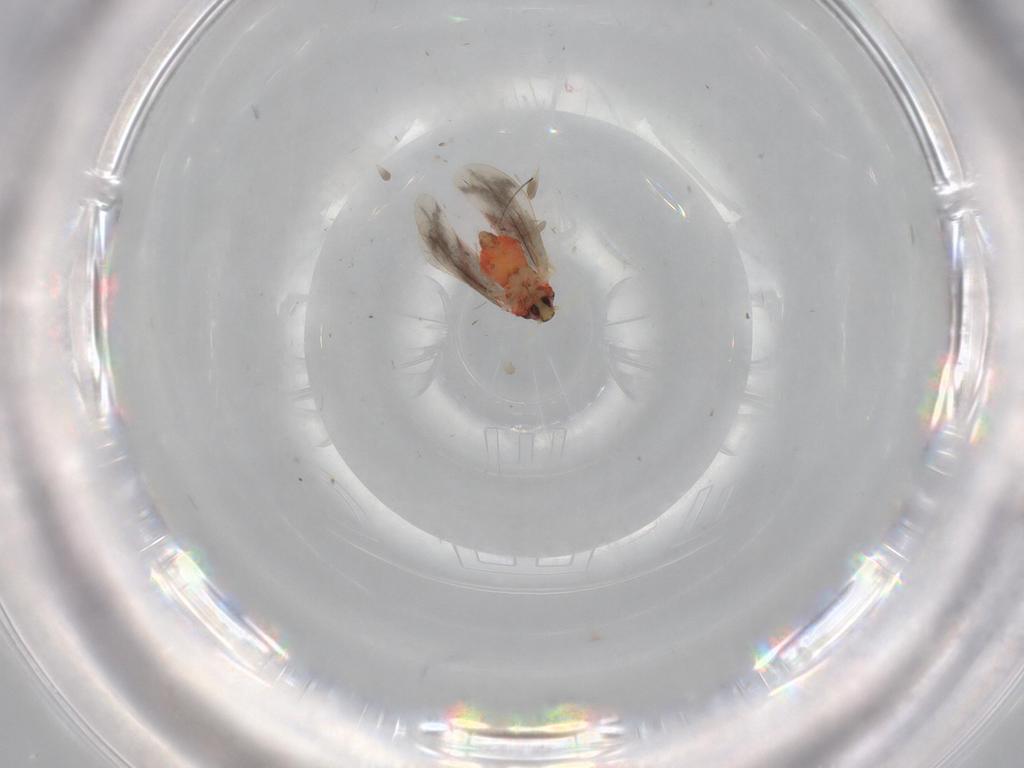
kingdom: Animalia
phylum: Arthropoda
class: Insecta
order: Hemiptera
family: Aleyrodidae
